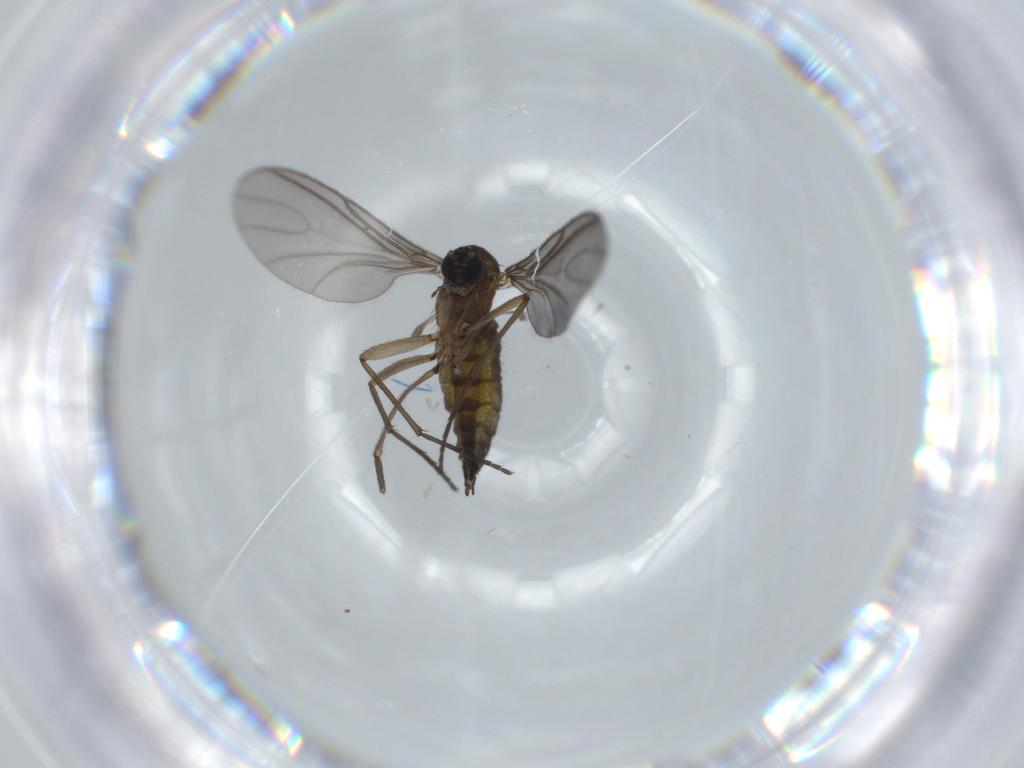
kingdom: Animalia
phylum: Arthropoda
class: Insecta
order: Diptera
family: Sciaridae
